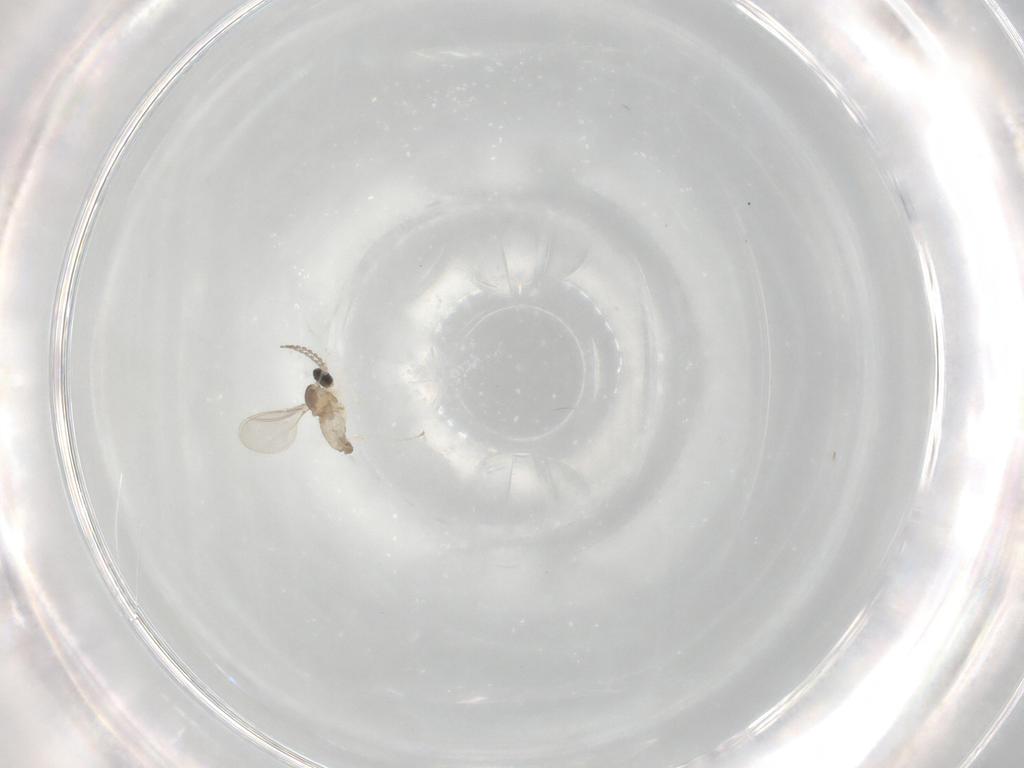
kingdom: Animalia
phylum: Arthropoda
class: Insecta
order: Diptera
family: Cecidomyiidae
